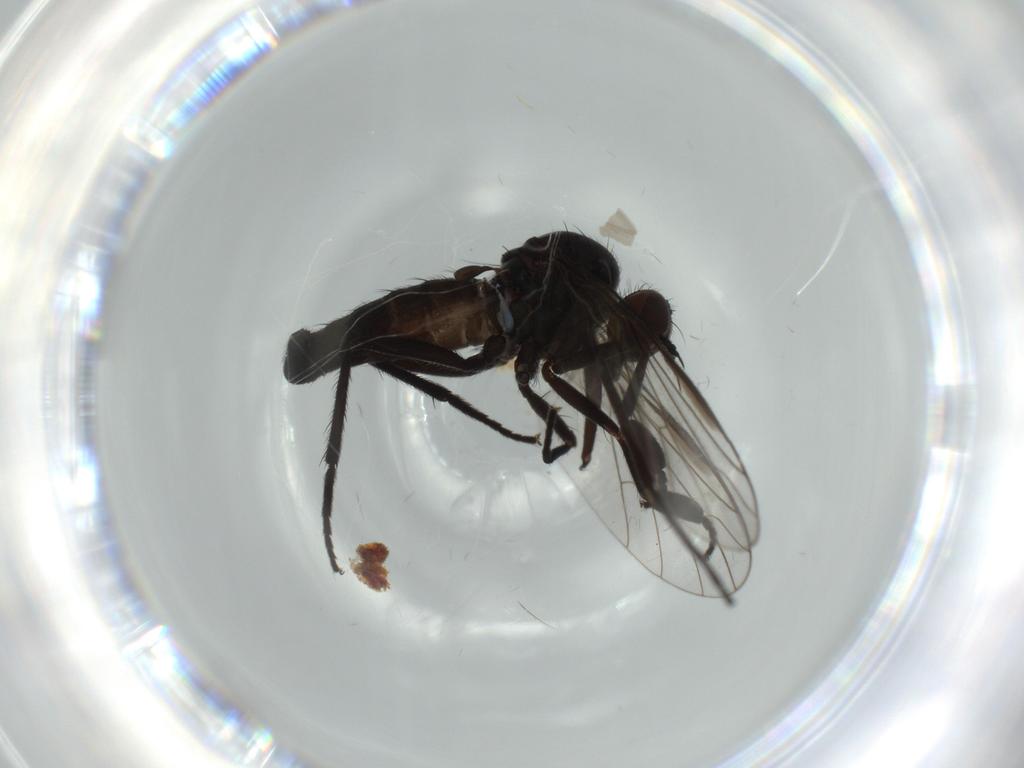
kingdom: Animalia
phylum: Arthropoda
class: Insecta
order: Diptera
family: Empididae
